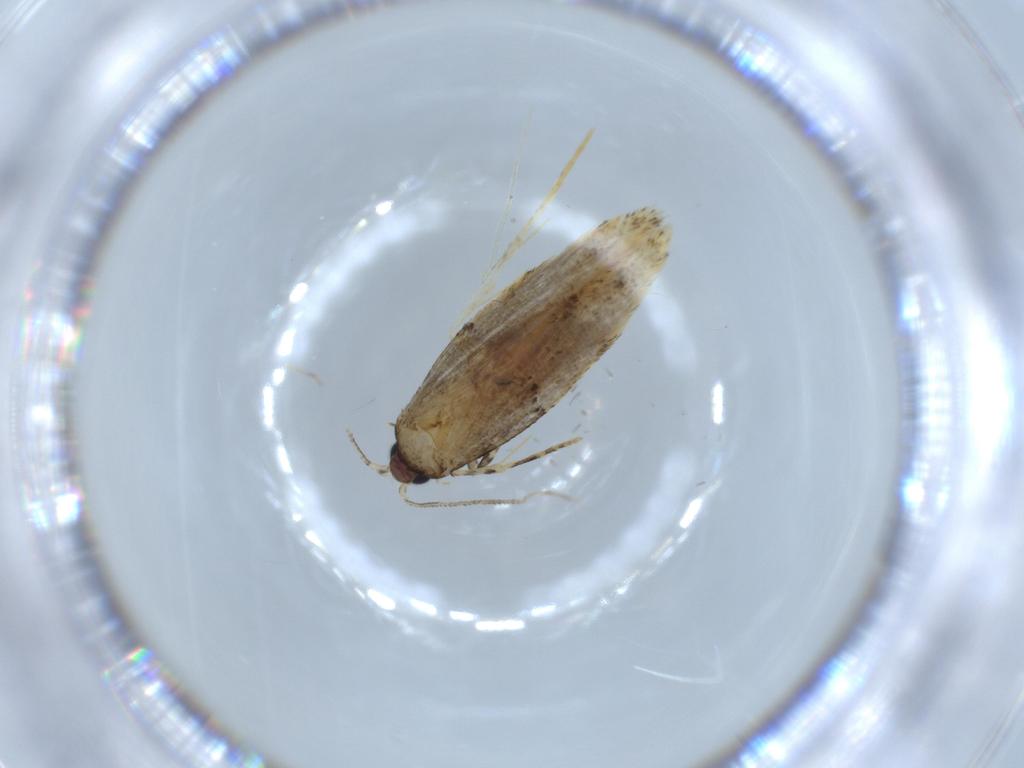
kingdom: Animalia
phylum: Arthropoda
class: Insecta
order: Lepidoptera
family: Tineidae
